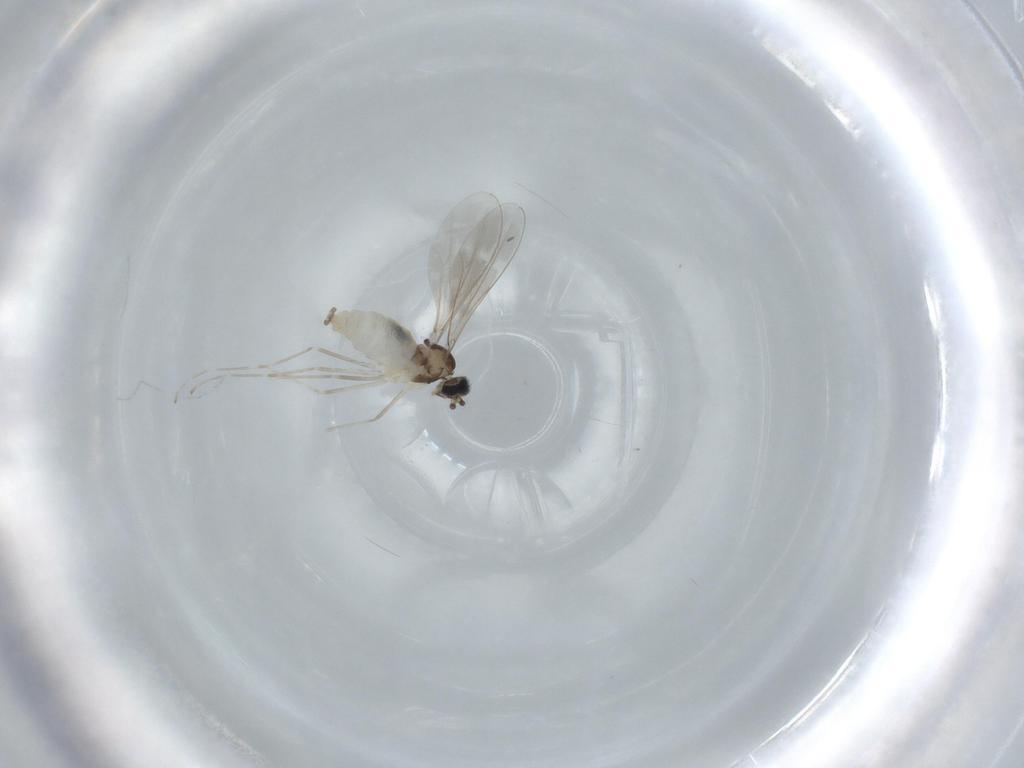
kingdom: Animalia
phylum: Arthropoda
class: Insecta
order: Diptera
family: Cecidomyiidae
